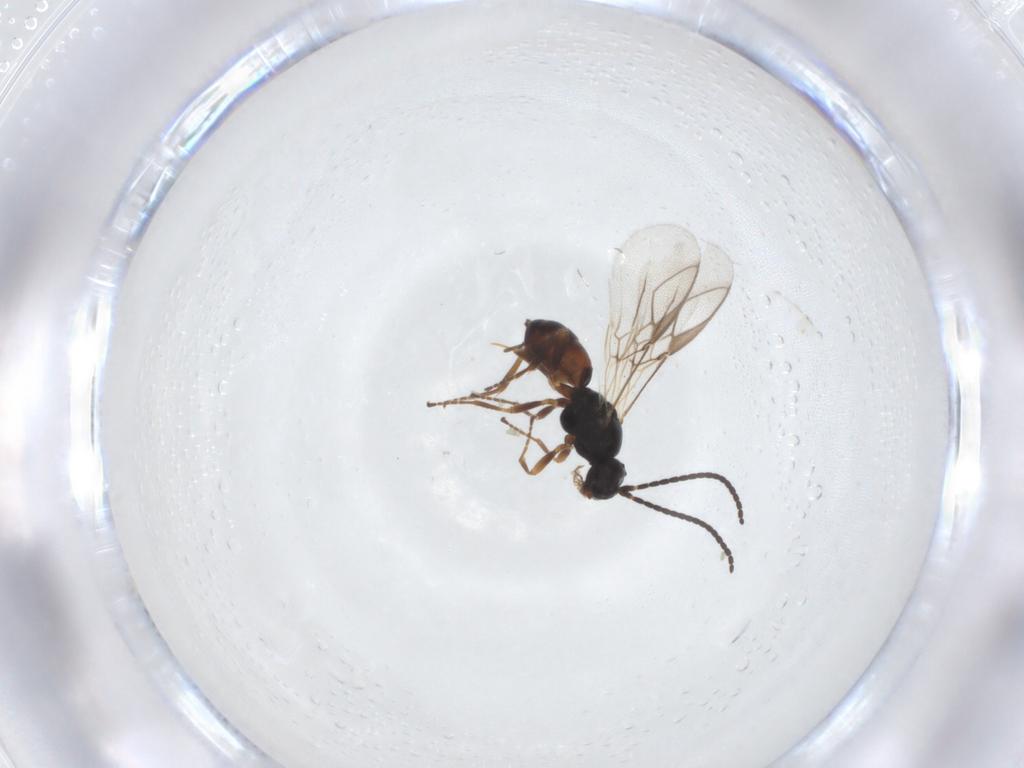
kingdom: Animalia
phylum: Arthropoda
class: Insecta
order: Hymenoptera
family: Braconidae
